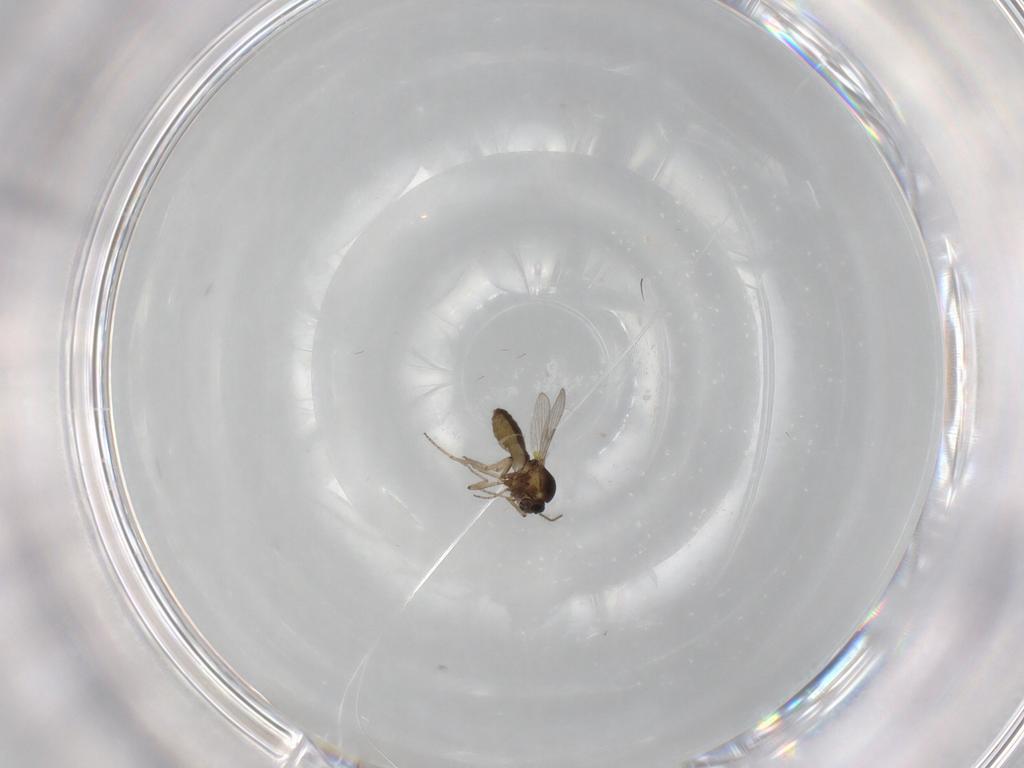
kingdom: Animalia
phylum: Arthropoda
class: Insecta
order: Diptera
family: Ceratopogonidae
